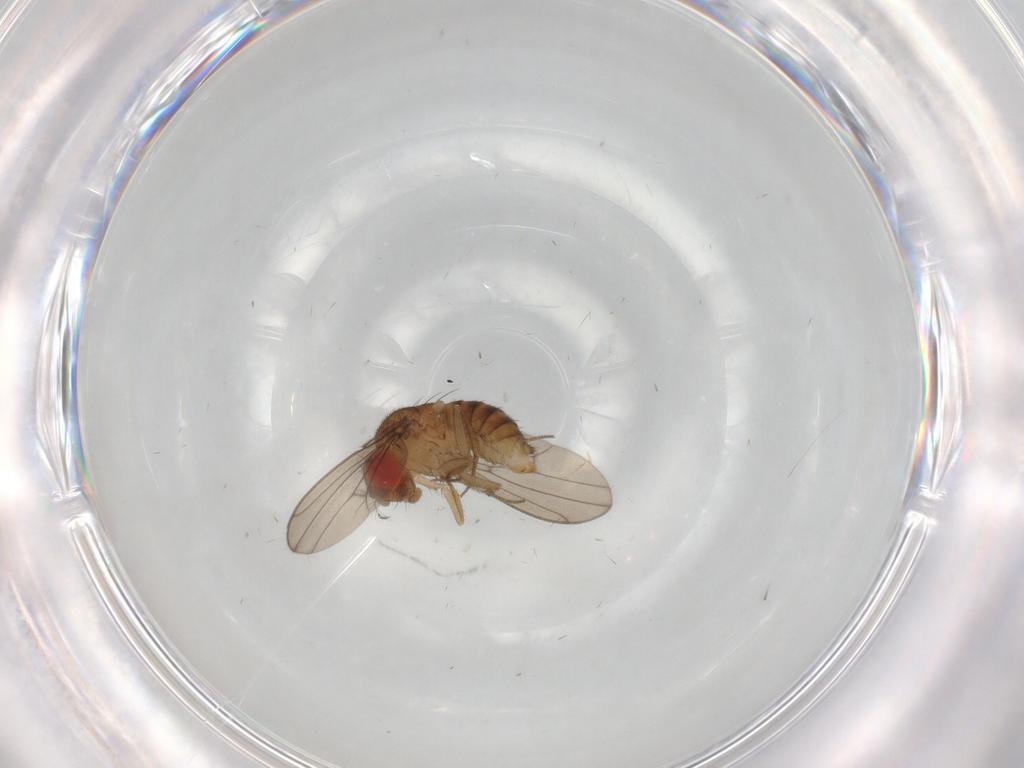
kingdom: Animalia
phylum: Arthropoda
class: Insecta
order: Diptera
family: Drosophilidae
